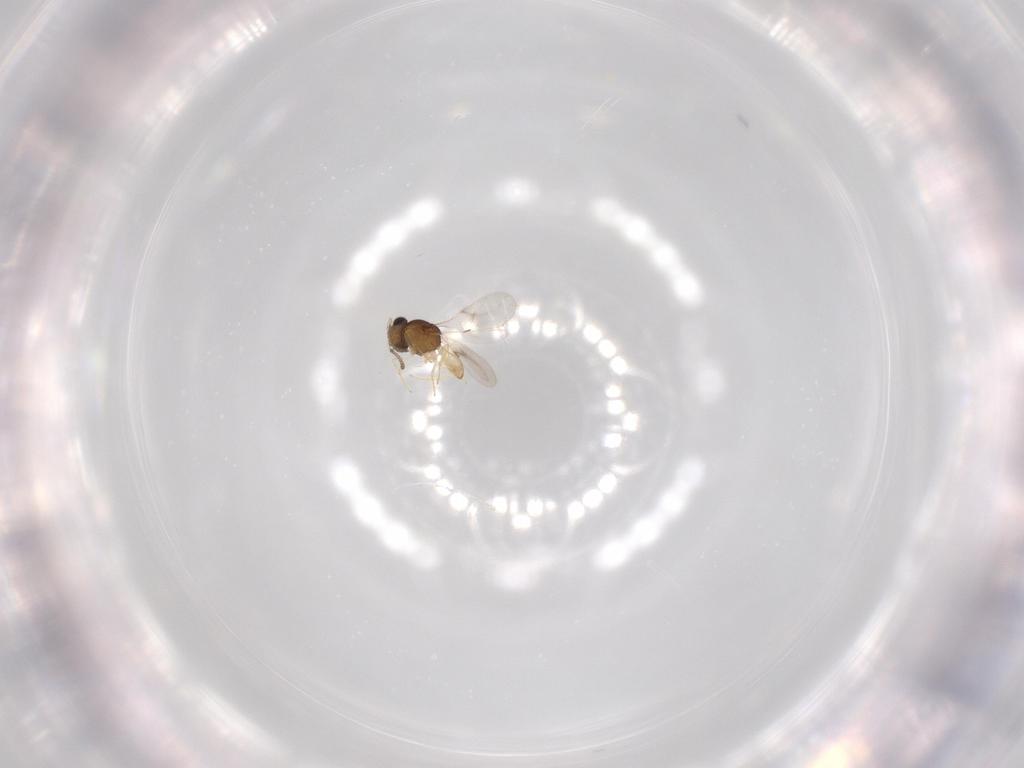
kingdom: Animalia
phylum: Arthropoda
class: Insecta
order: Hymenoptera
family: Scelionidae
